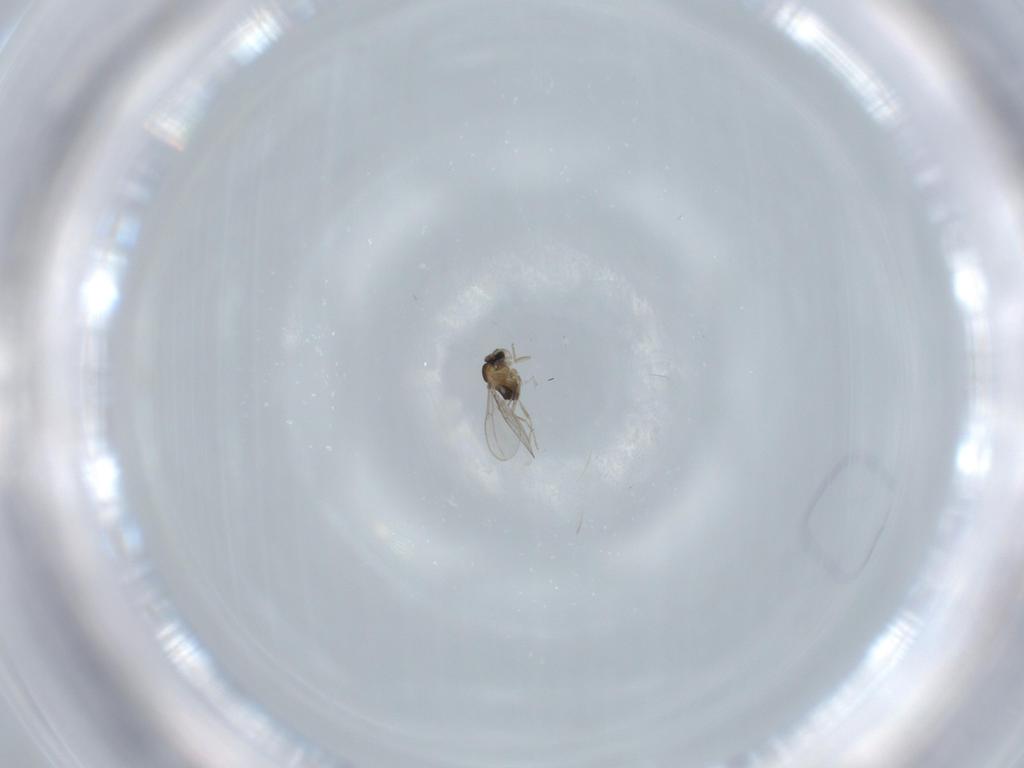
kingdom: Animalia
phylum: Arthropoda
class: Insecta
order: Diptera
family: Cecidomyiidae
